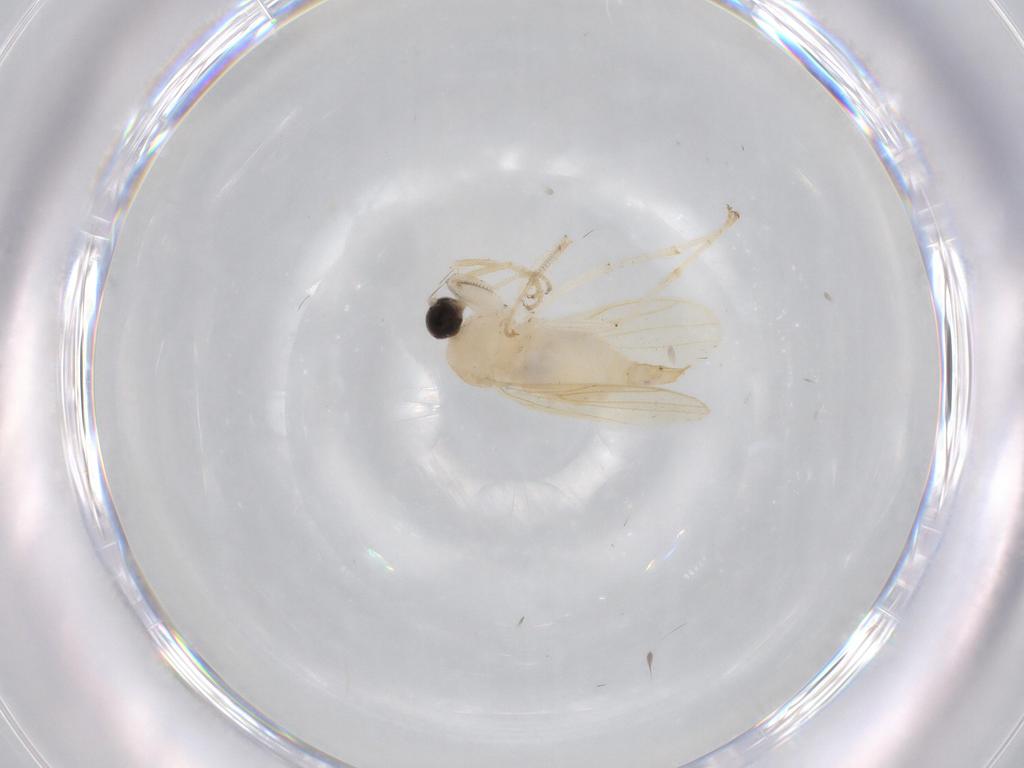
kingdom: Animalia
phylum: Arthropoda
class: Insecta
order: Diptera
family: Hybotidae
